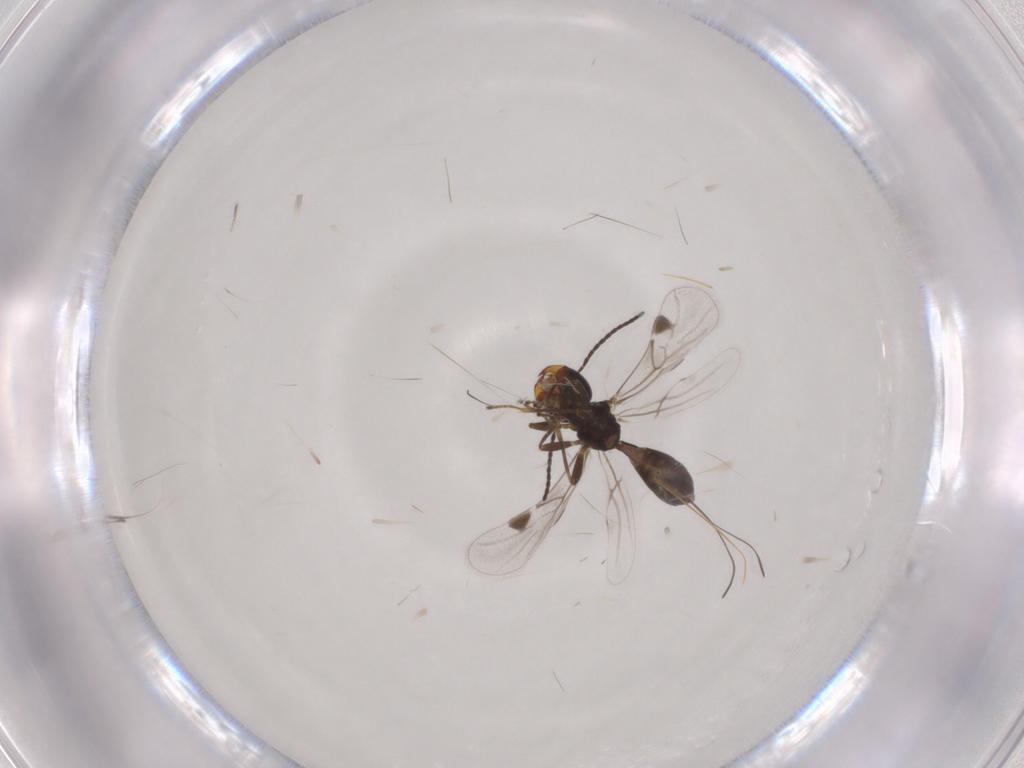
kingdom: Animalia
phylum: Arthropoda
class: Insecta
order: Hymenoptera
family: Braconidae
